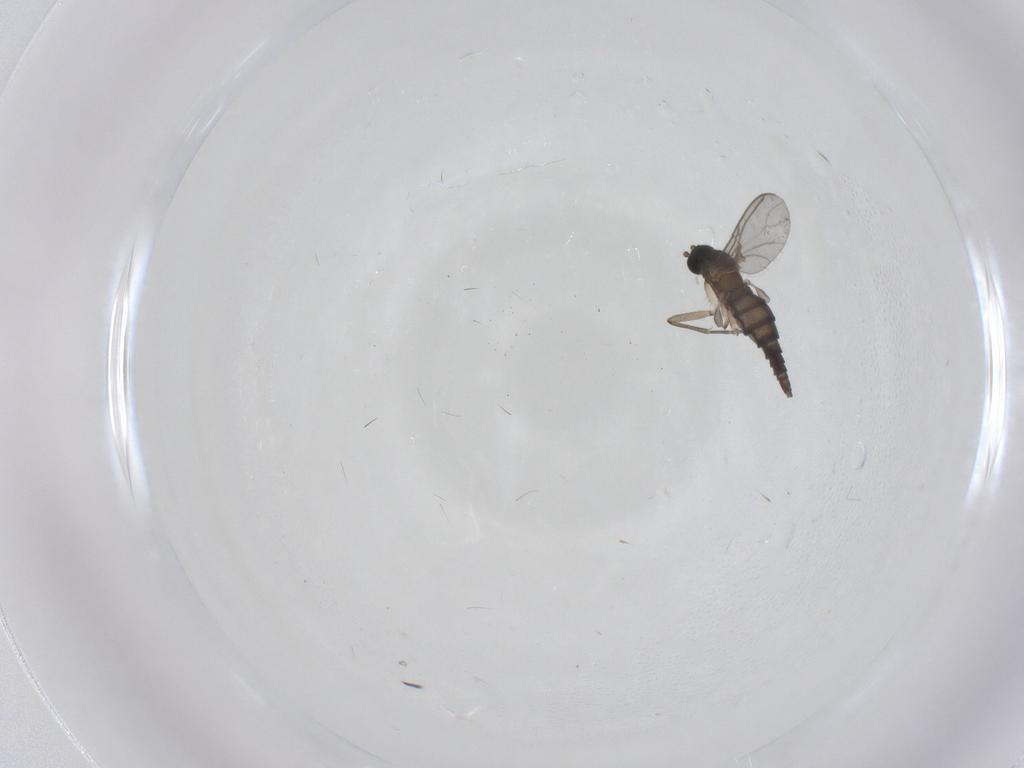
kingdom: Animalia
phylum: Arthropoda
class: Insecta
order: Diptera
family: Sciaridae
